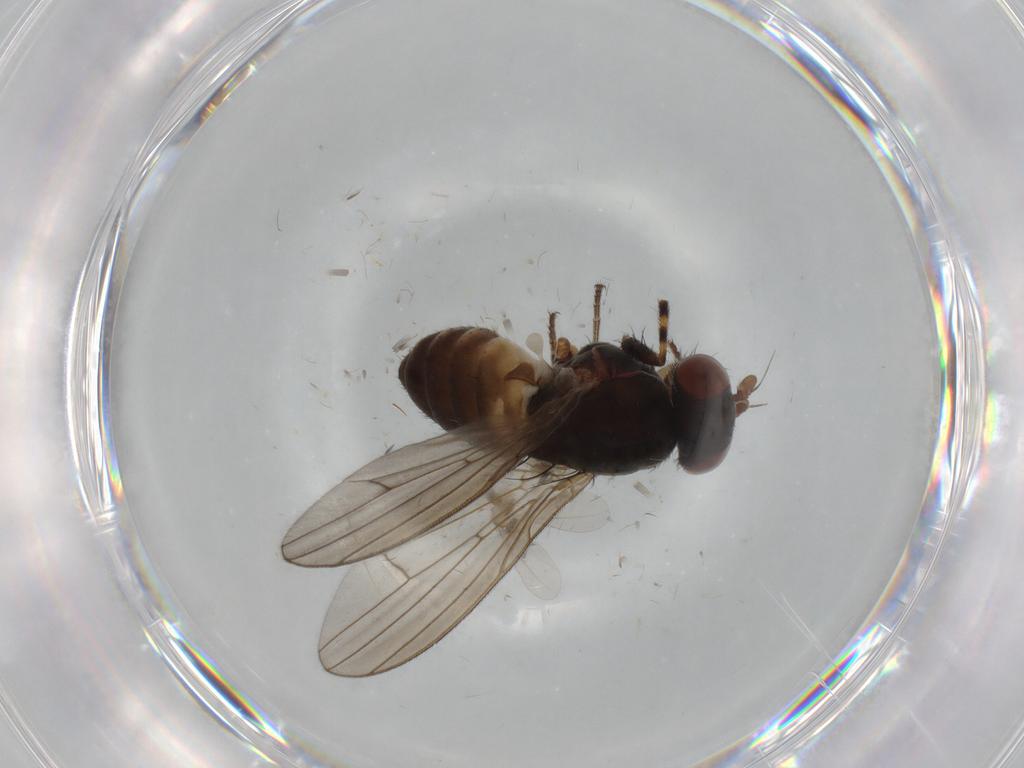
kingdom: Animalia
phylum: Arthropoda
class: Insecta
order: Diptera
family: Cecidomyiidae
